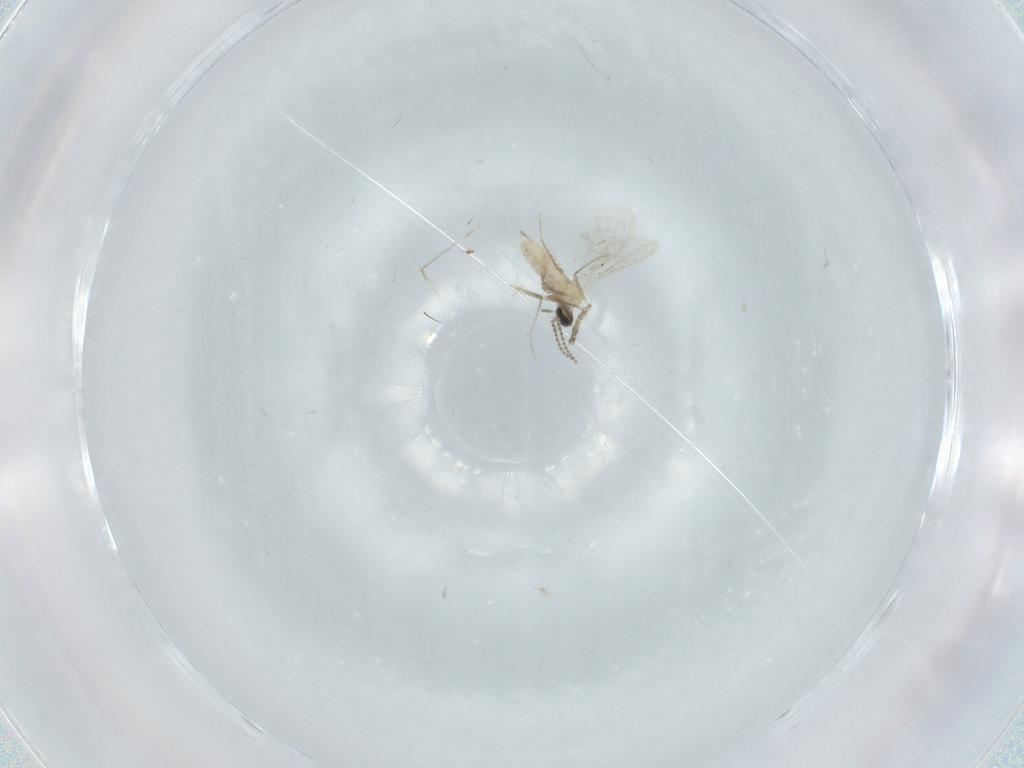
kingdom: Animalia
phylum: Arthropoda
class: Insecta
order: Diptera
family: Cecidomyiidae
